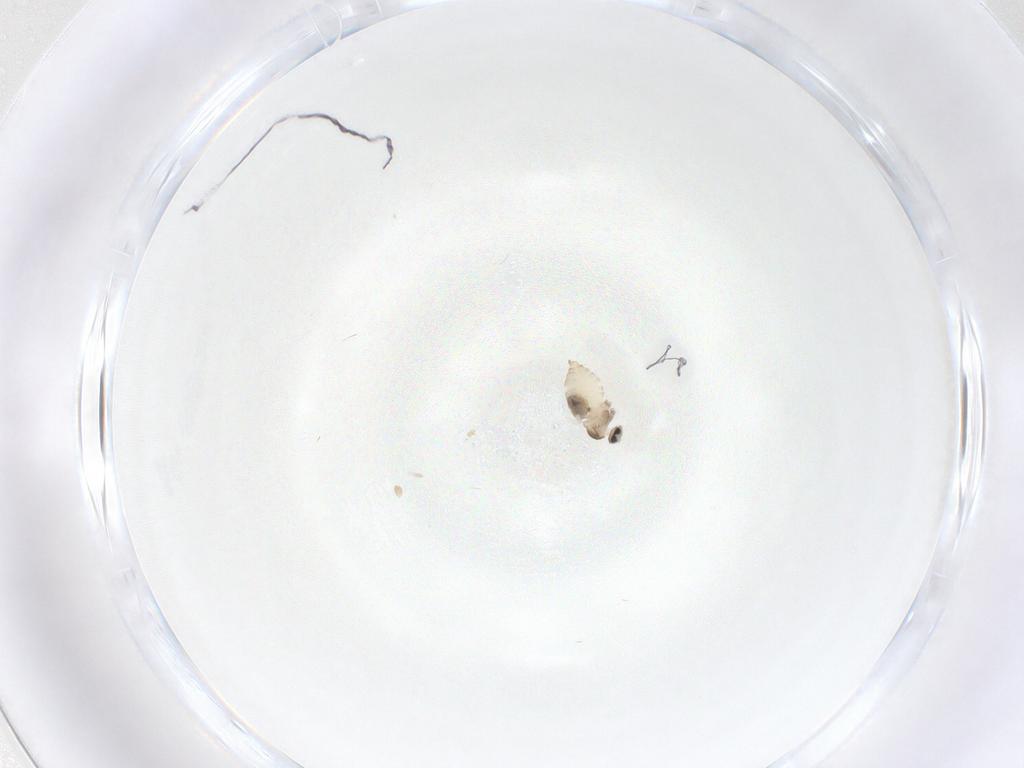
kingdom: Animalia
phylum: Arthropoda
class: Insecta
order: Diptera
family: Cecidomyiidae
